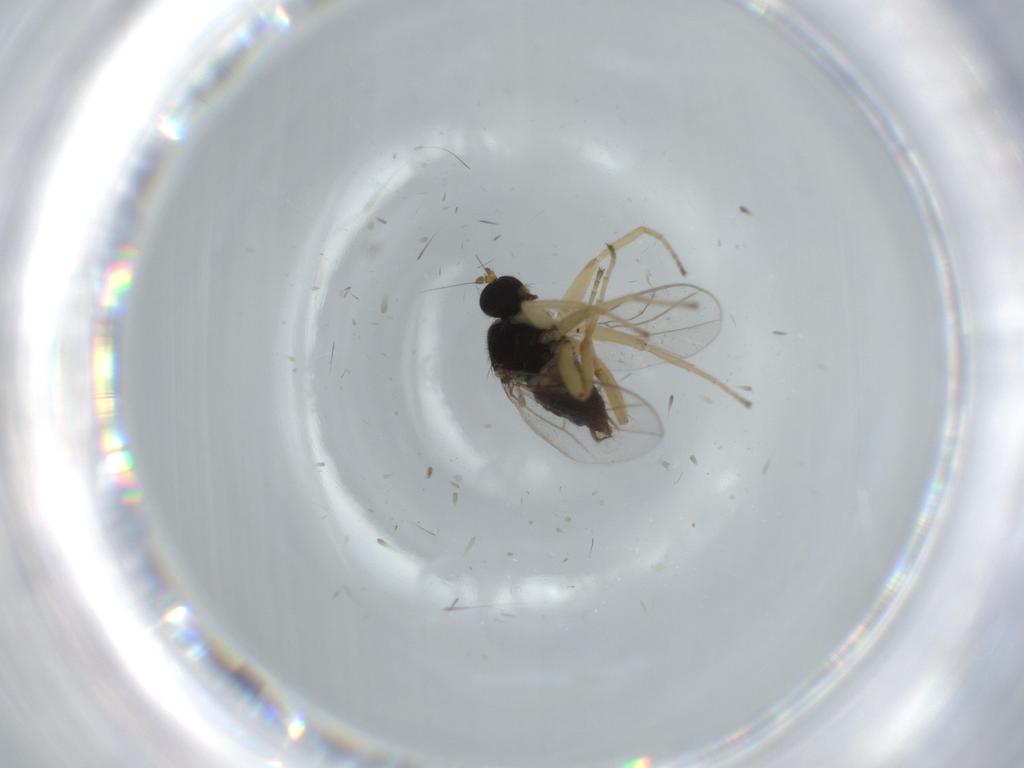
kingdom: Animalia
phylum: Arthropoda
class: Insecta
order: Diptera
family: Hybotidae
